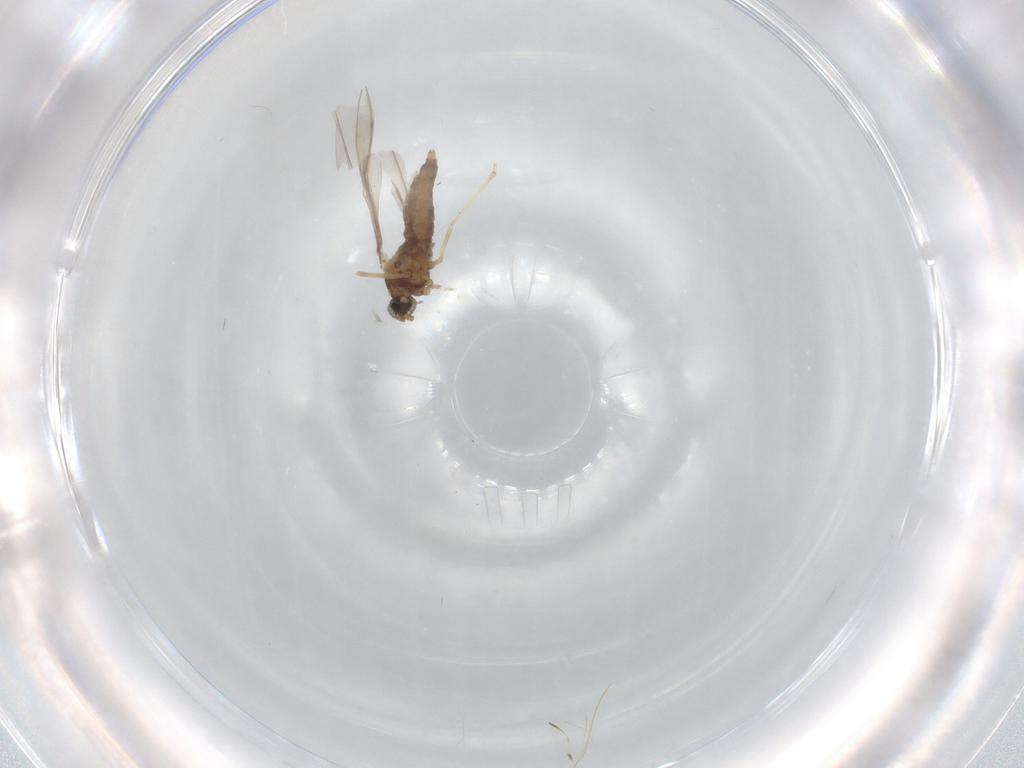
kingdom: Animalia
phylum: Arthropoda
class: Insecta
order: Diptera
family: Cecidomyiidae
